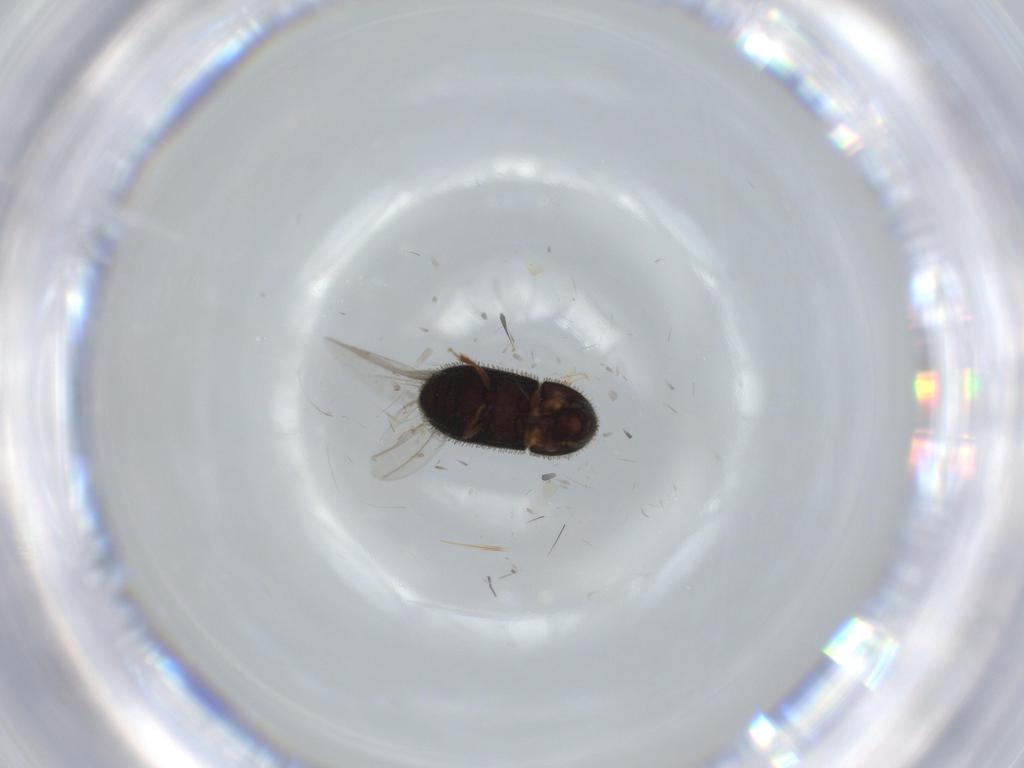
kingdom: Animalia
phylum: Arthropoda
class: Insecta
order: Coleoptera
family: Curculionidae
